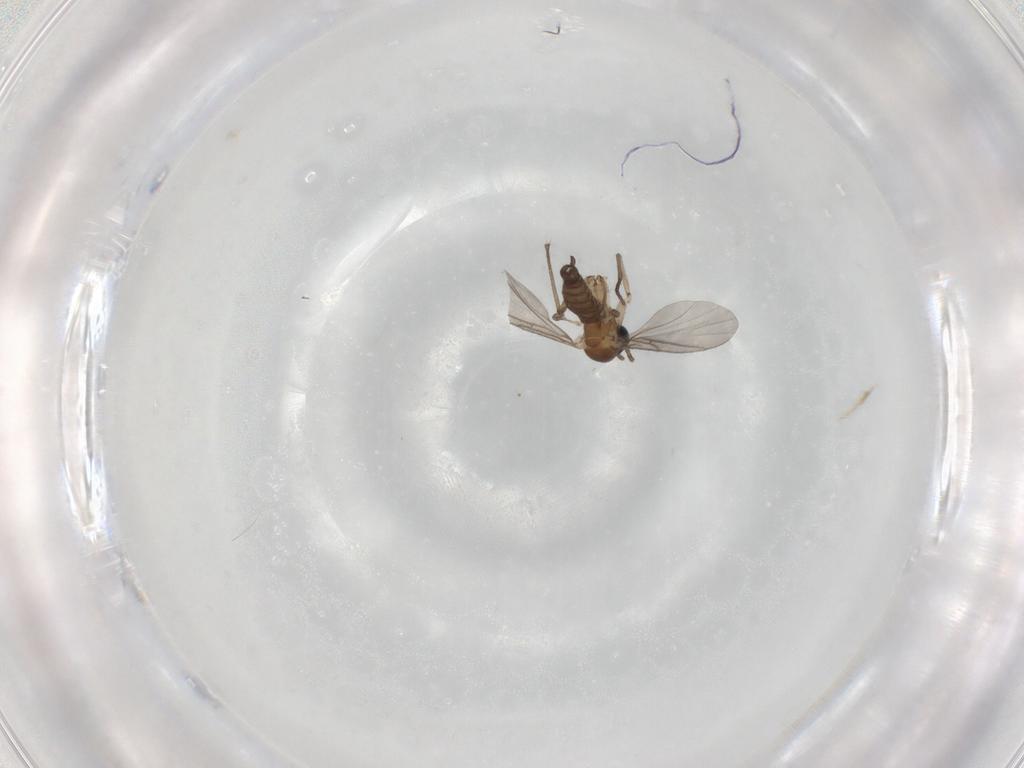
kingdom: Animalia
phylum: Arthropoda
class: Insecta
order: Diptera
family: Sciaridae
